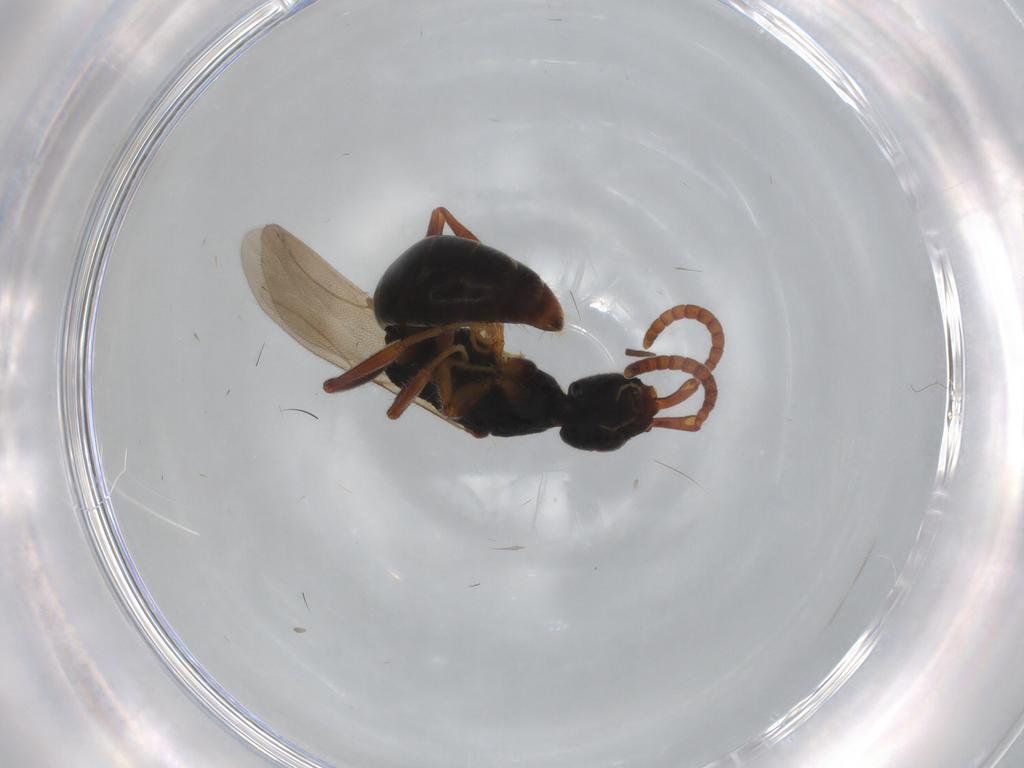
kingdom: Animalia
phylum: Arthropoda
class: Insecta
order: Hymenoptera
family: Bethylidae
